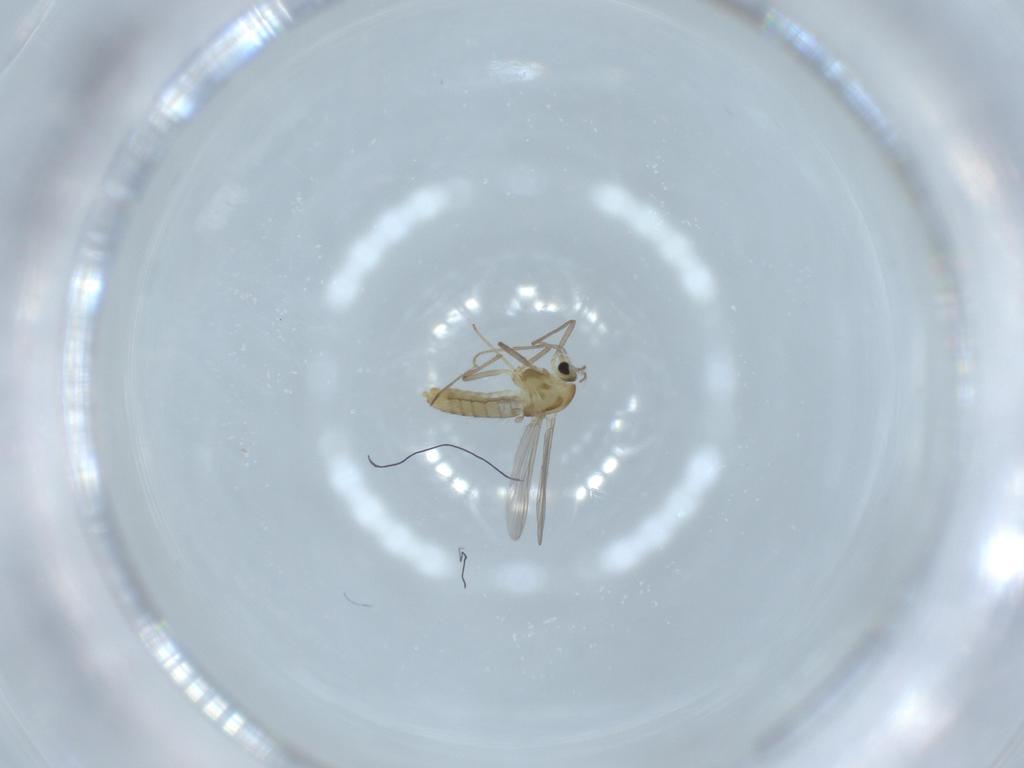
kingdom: Animalia
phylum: Arthropoda
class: Insecta
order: Diptera
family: Chironomidae
